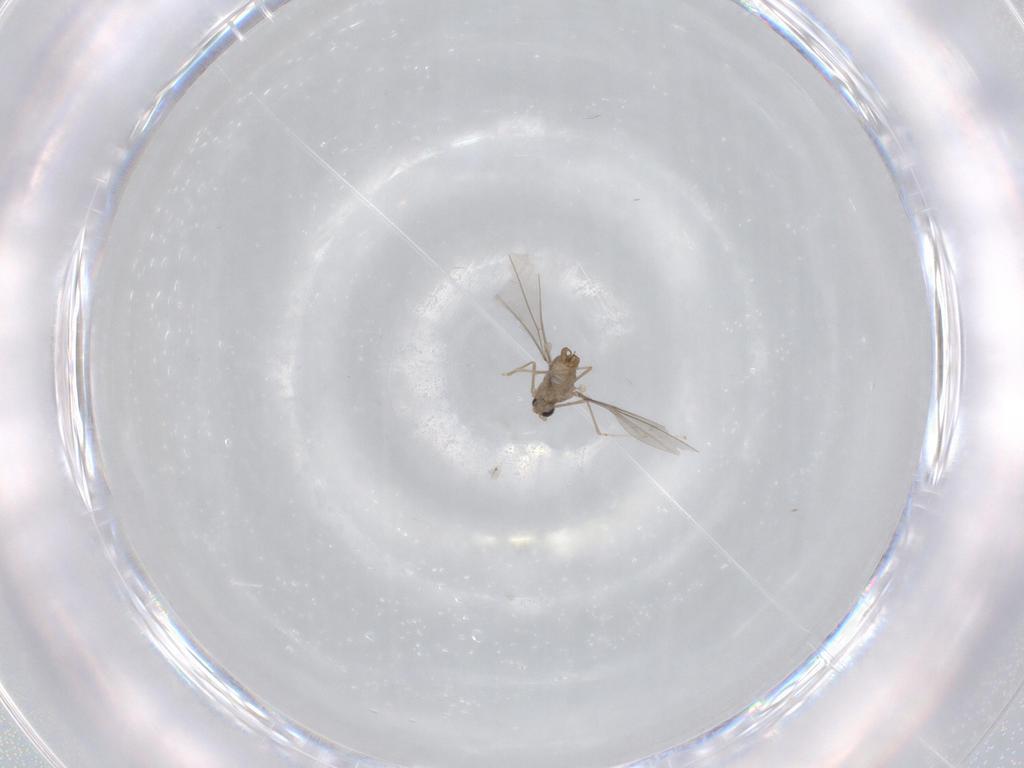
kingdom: Animalia
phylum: Arthropoda
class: Insecta
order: Diptera
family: Cecidomyiidae
